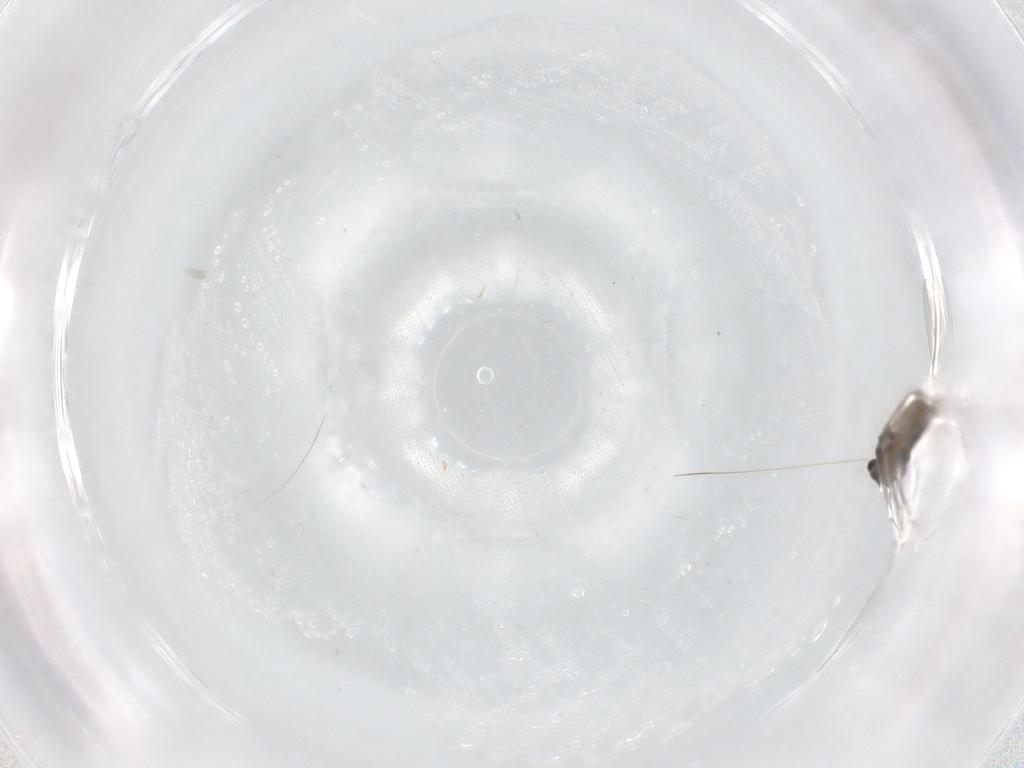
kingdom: Animalia
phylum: Arthropoda
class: Insecta
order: Diptera
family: Cecidomyiidae
